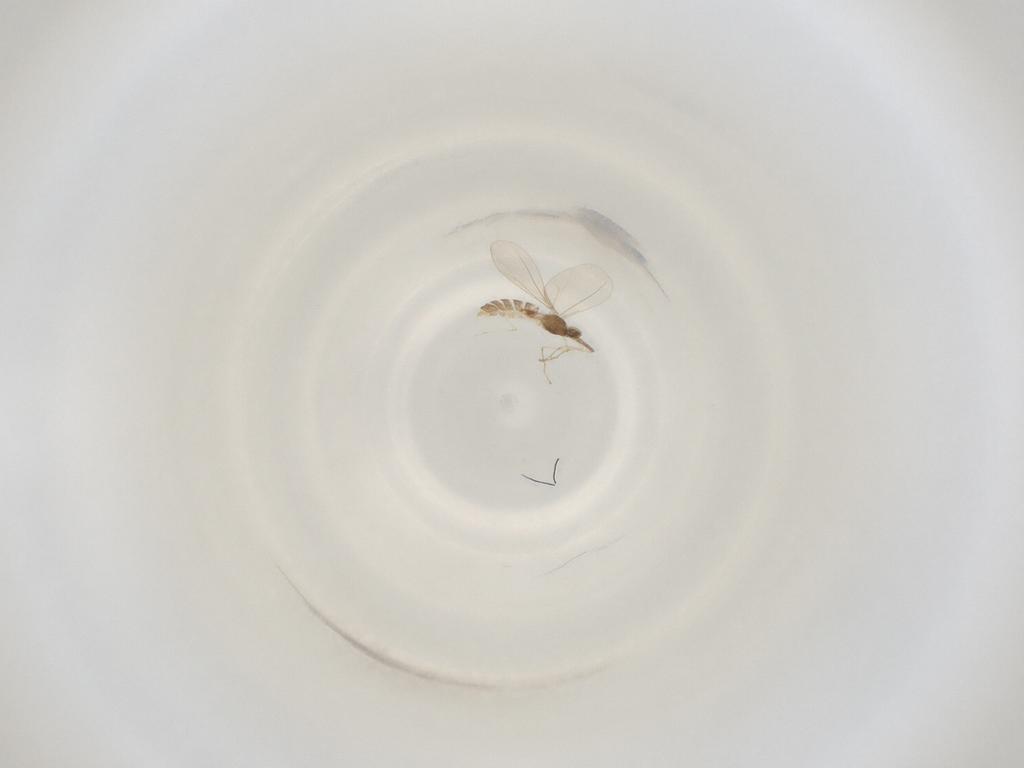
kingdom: Animalia
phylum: Arthropoda
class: Insecta
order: Diptera
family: Cecidomyiidae
